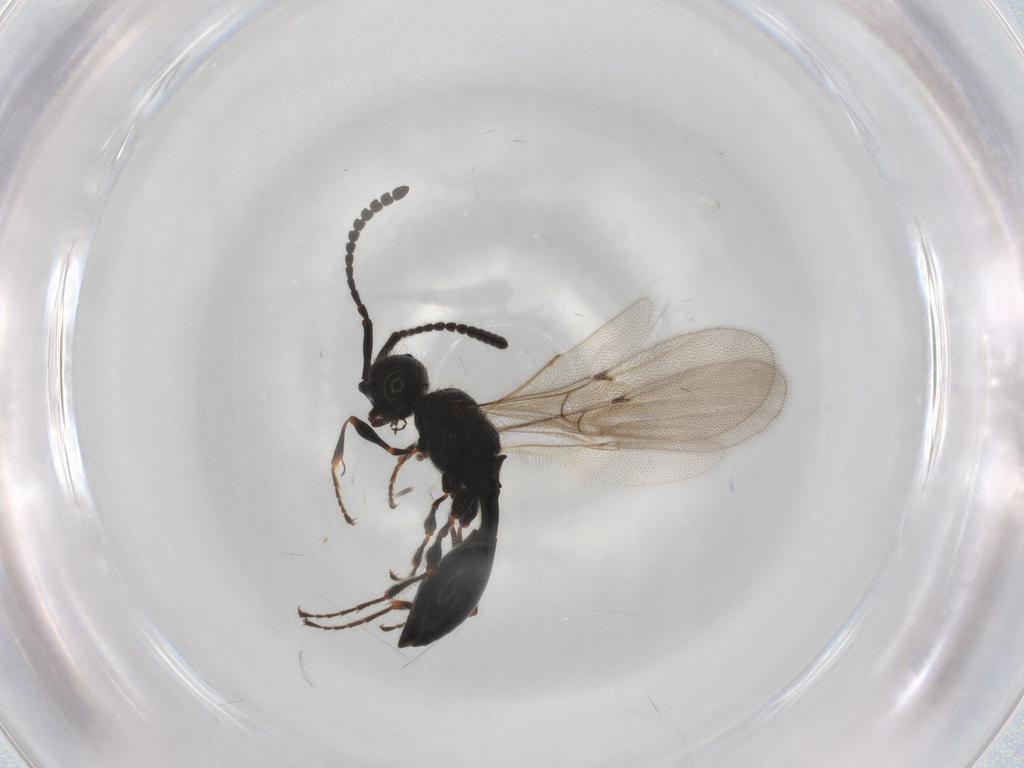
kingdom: Animalia
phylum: Arthropoda
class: Insecta
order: Hymenoptera
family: Diapriidae
